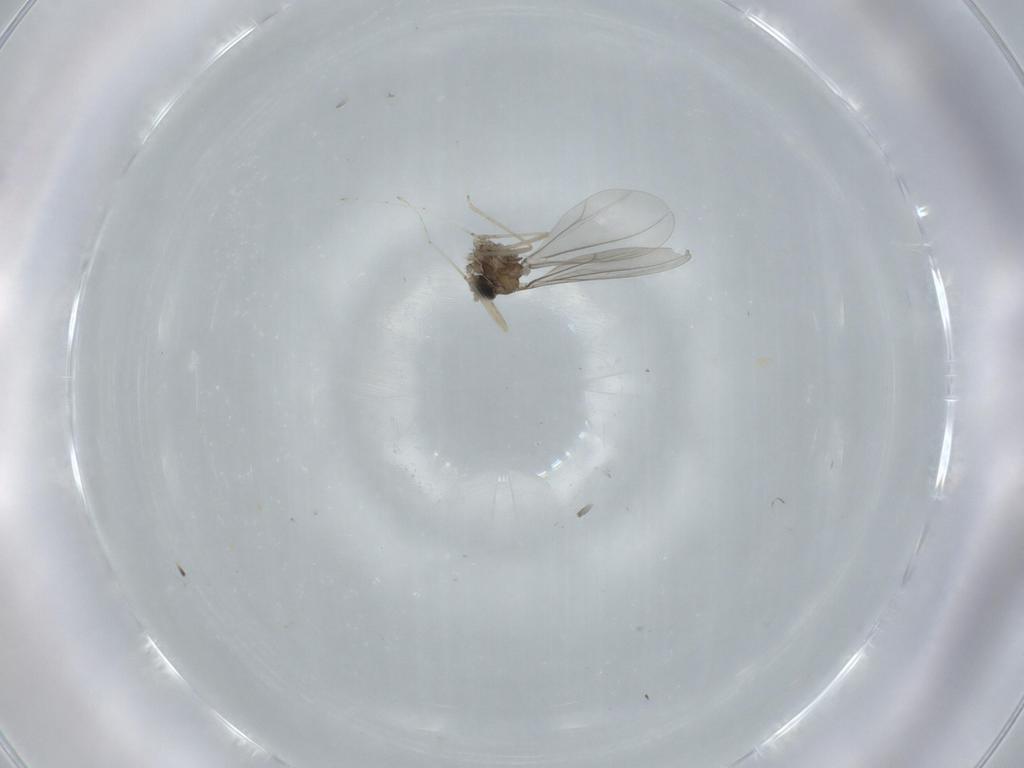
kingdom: Animalia
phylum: Arthropoda
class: Insecta
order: Diptera
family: Cecidomyiidae
